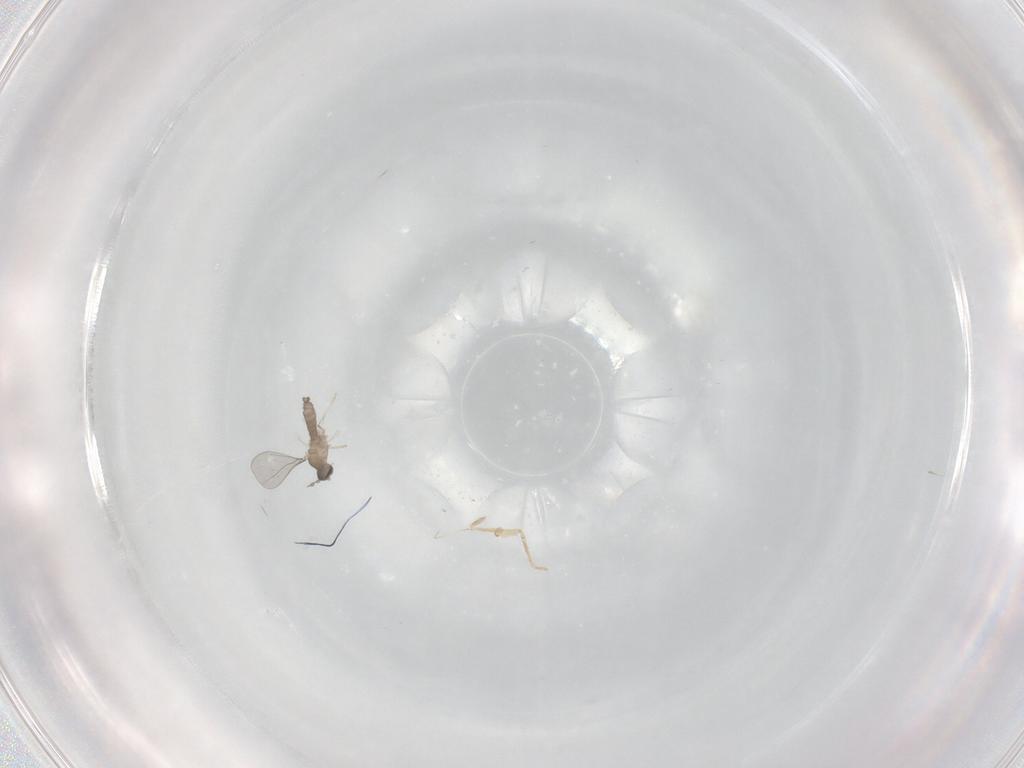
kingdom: Animalia
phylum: Arthropoda
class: Insecta
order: Diptera
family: Cecidomyiidae
